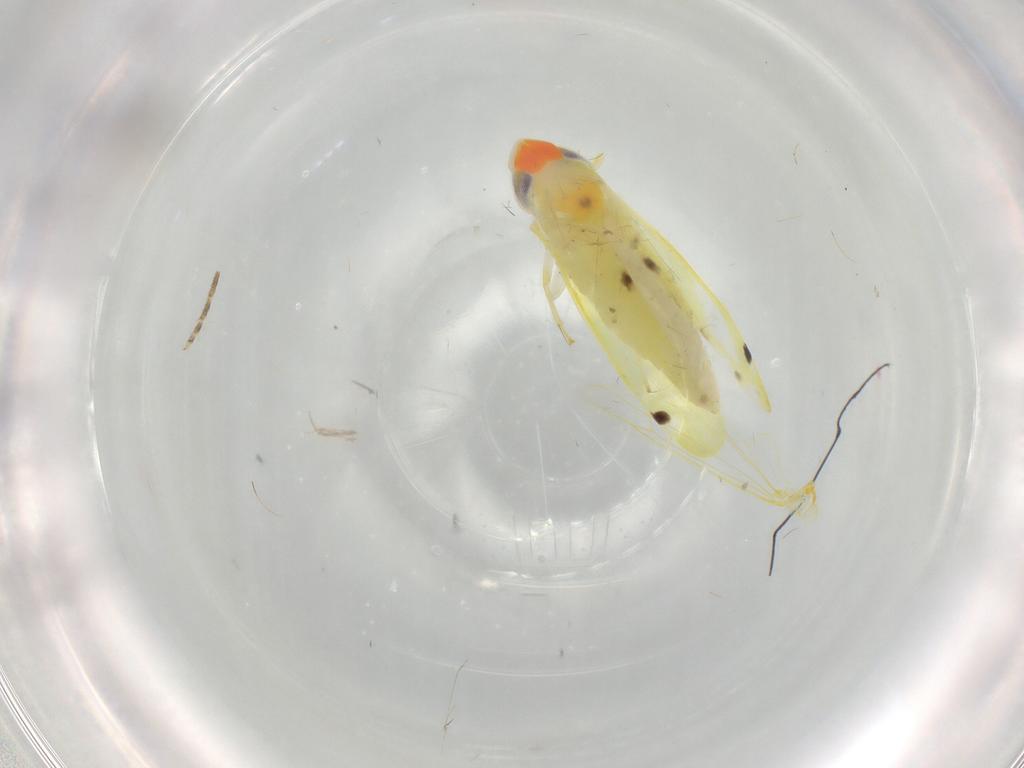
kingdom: Animalia
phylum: Arthropoda
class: Insecta
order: Hemiptera
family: Cicadellidae
